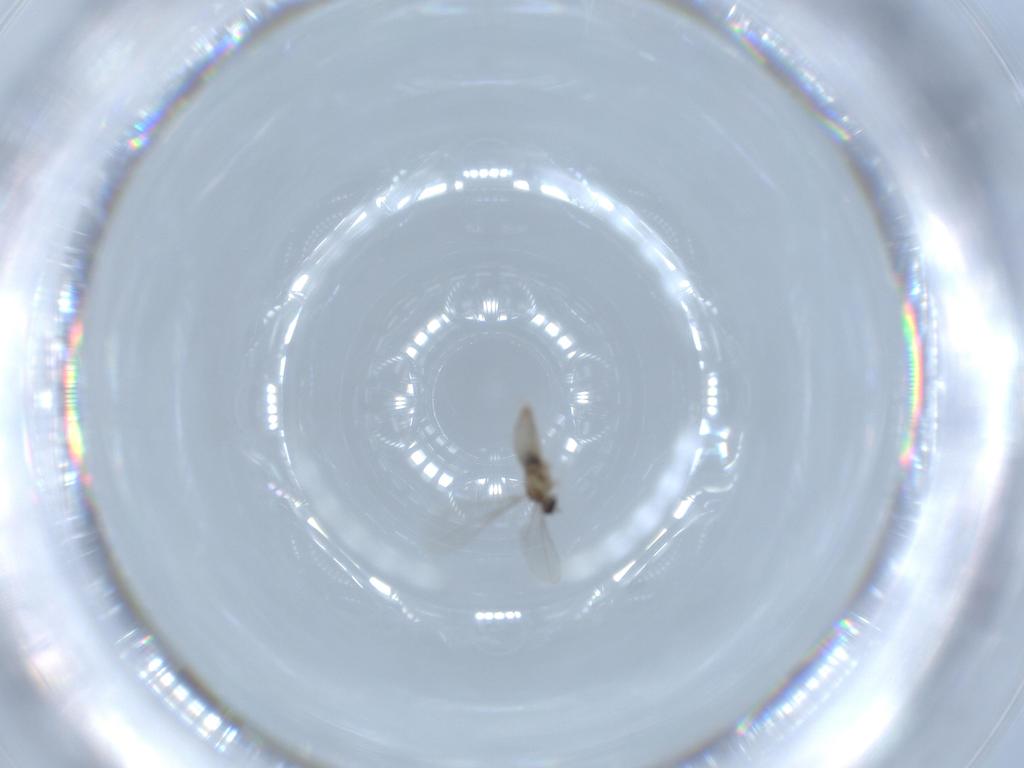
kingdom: Animalia
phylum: Arthropoda
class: Insecta
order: Diptera
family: Cecidomyiidae
